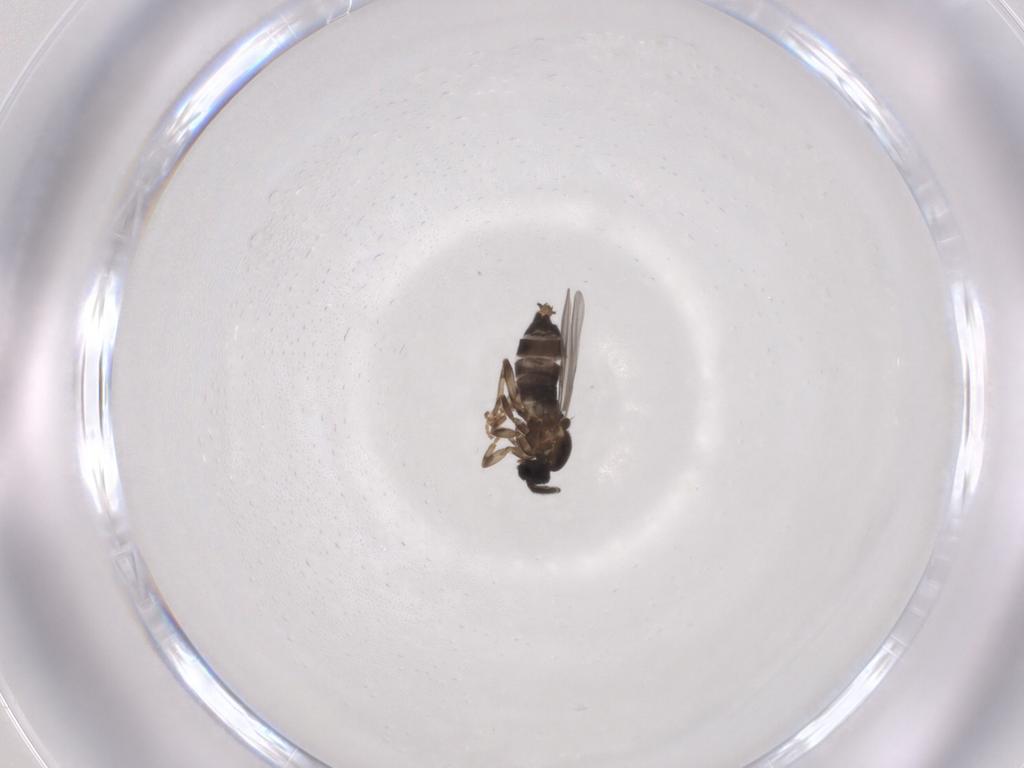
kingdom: Animalia
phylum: Arthropoda
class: Insecta
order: Diptera
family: Scatopsidae
